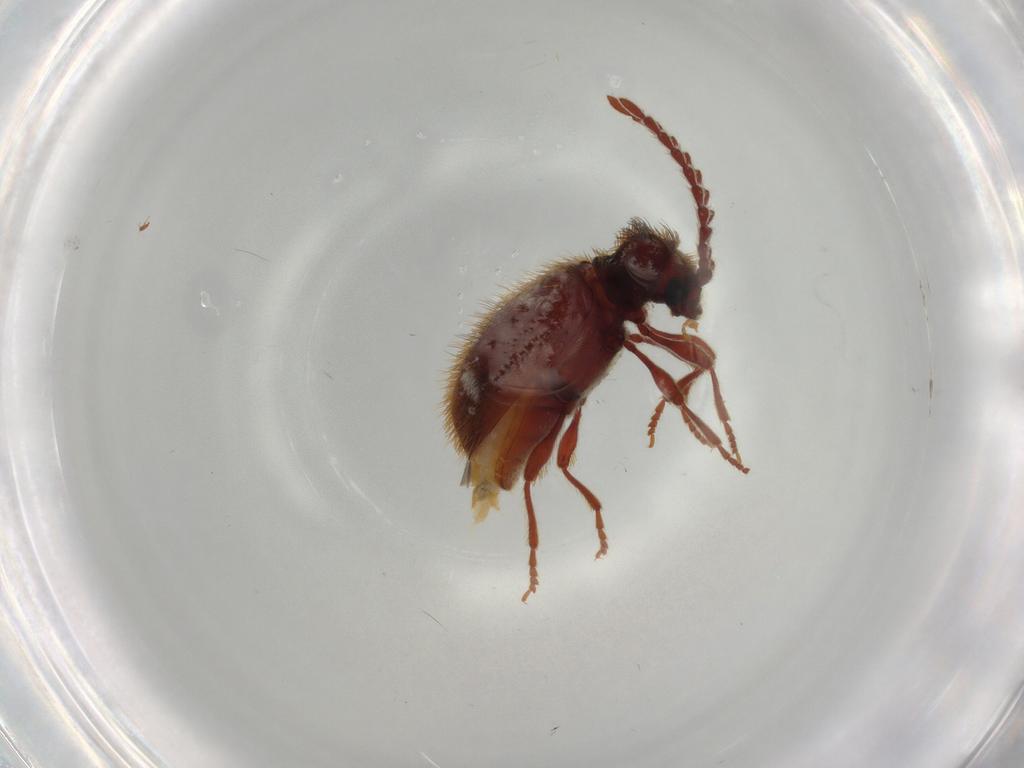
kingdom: Animalia
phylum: Arthropoda
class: Insecta
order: Coleoptera
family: Ptinidae
